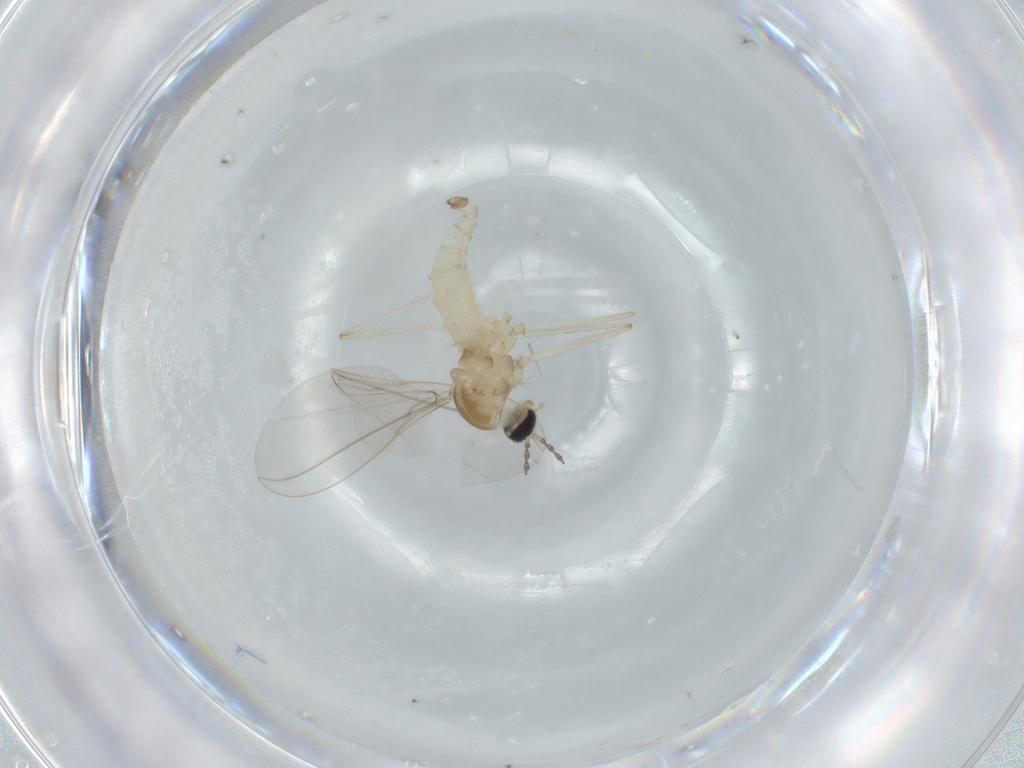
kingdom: Animalia
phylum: Arthropoda
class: Insecta
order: Diptera
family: Cecidomyiidae
